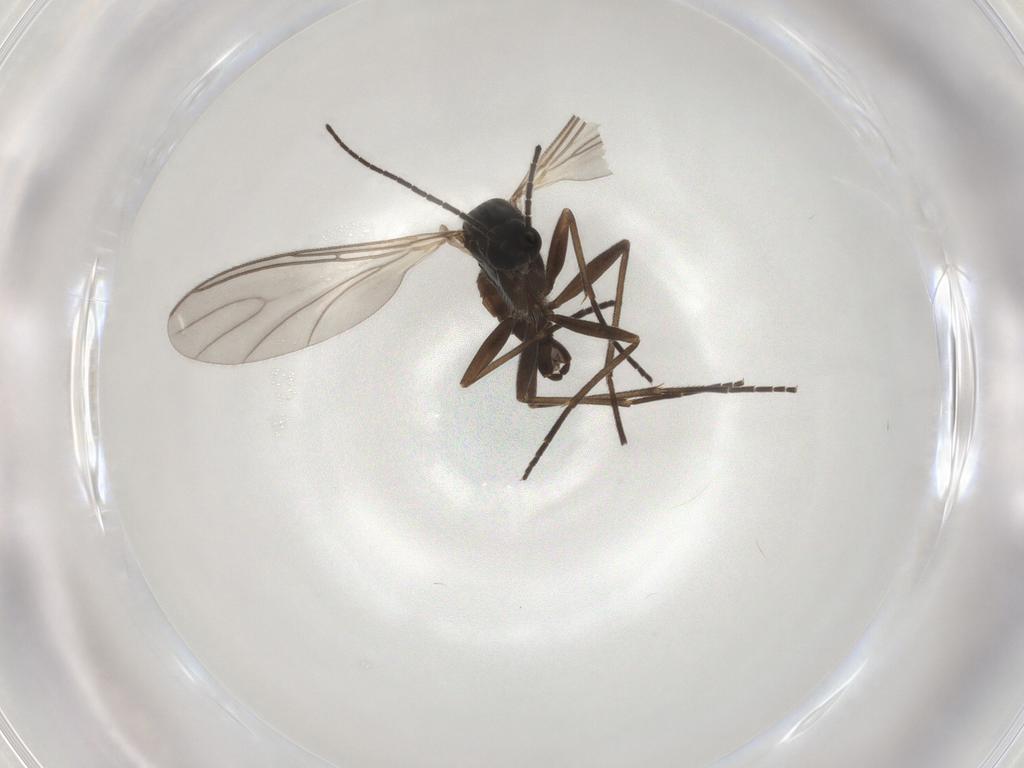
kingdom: Animalia
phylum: Arthropoda
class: Insecta
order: Diptera
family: Sciaridae
